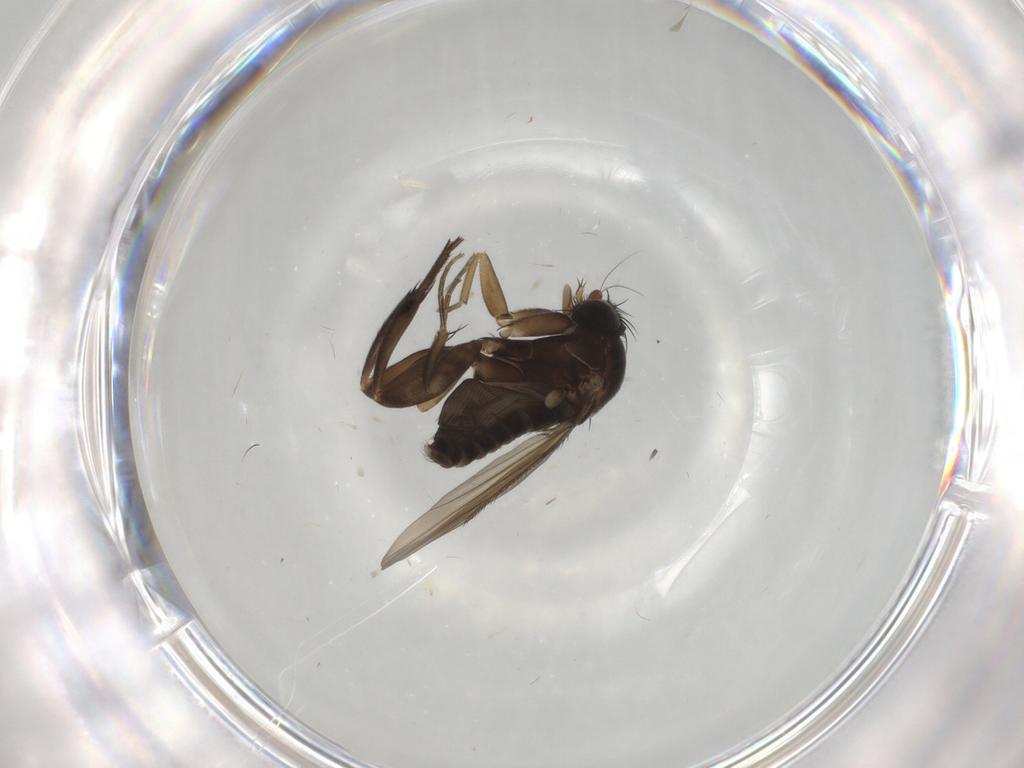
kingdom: Animalia
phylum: Arthropoda
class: Insecta
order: Diptera
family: Phoridae
